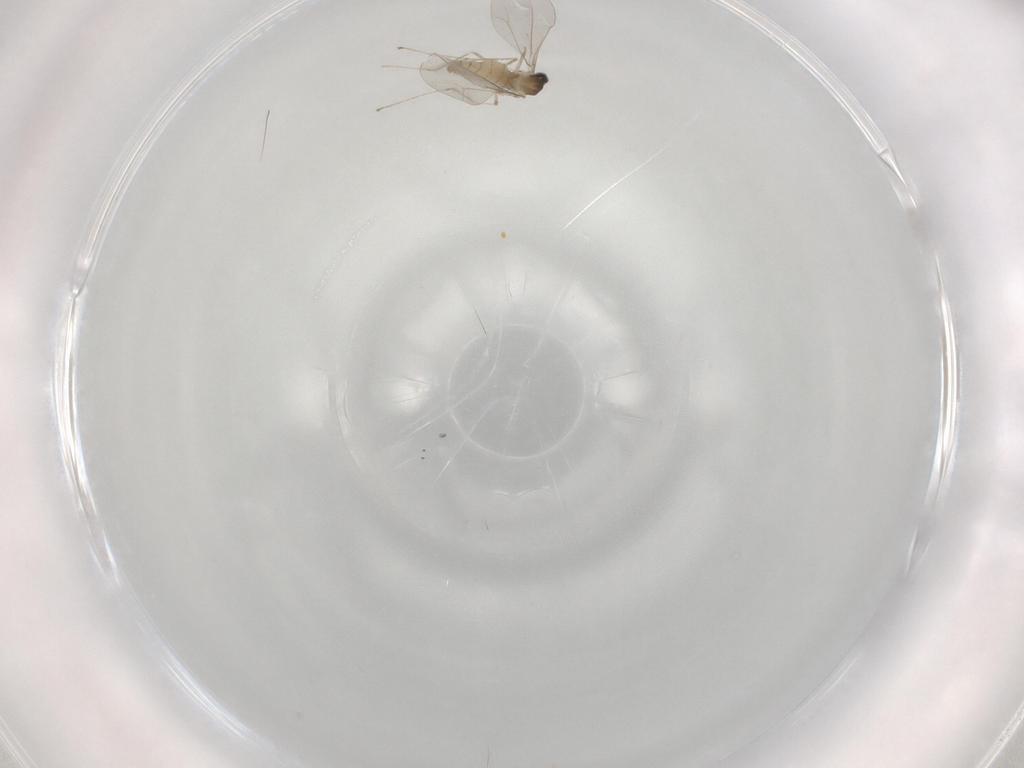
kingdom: Animalia
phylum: Arthropoda
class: Insecta
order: Diptera
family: Cecidomyiidae
